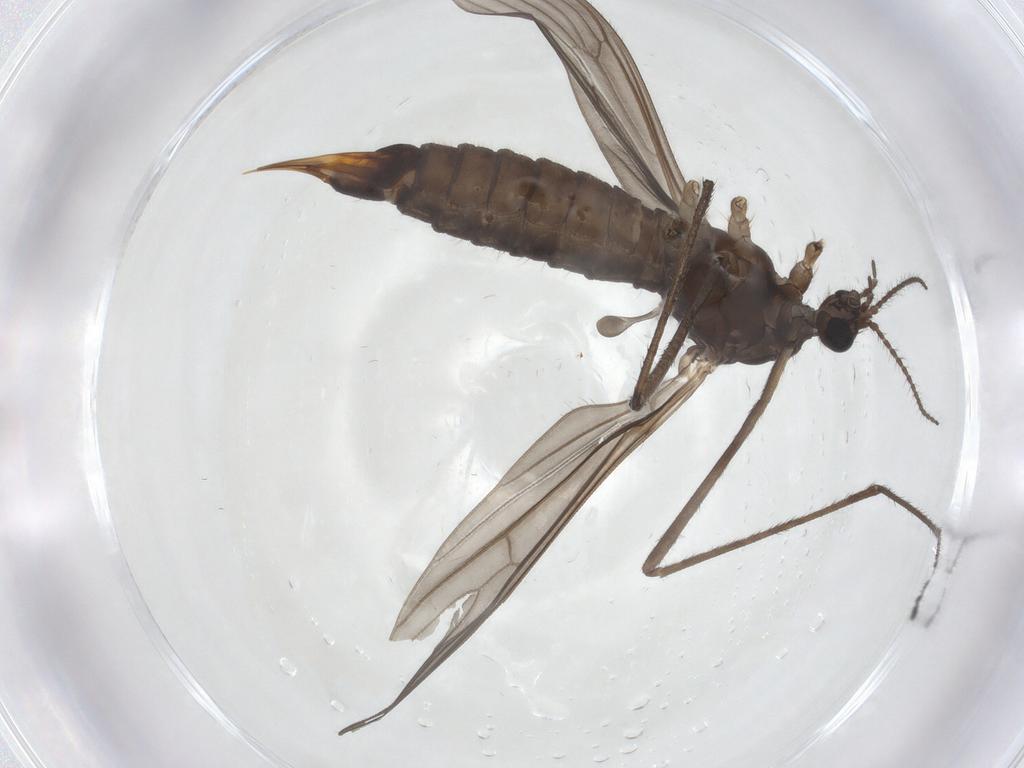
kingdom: Animalia
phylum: Arthropoda
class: Insecta
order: Diptera
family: Limoniidae
